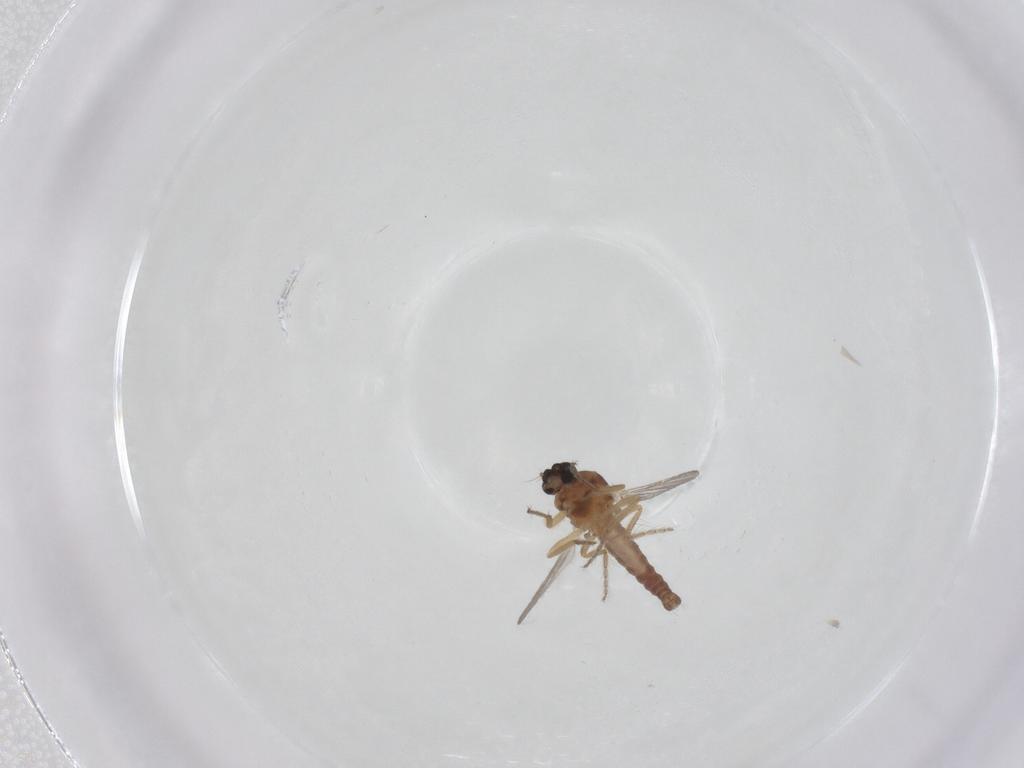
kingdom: Animalia
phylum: Arthropoda
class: Insecta
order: Diptera
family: Ceratopogonidae
